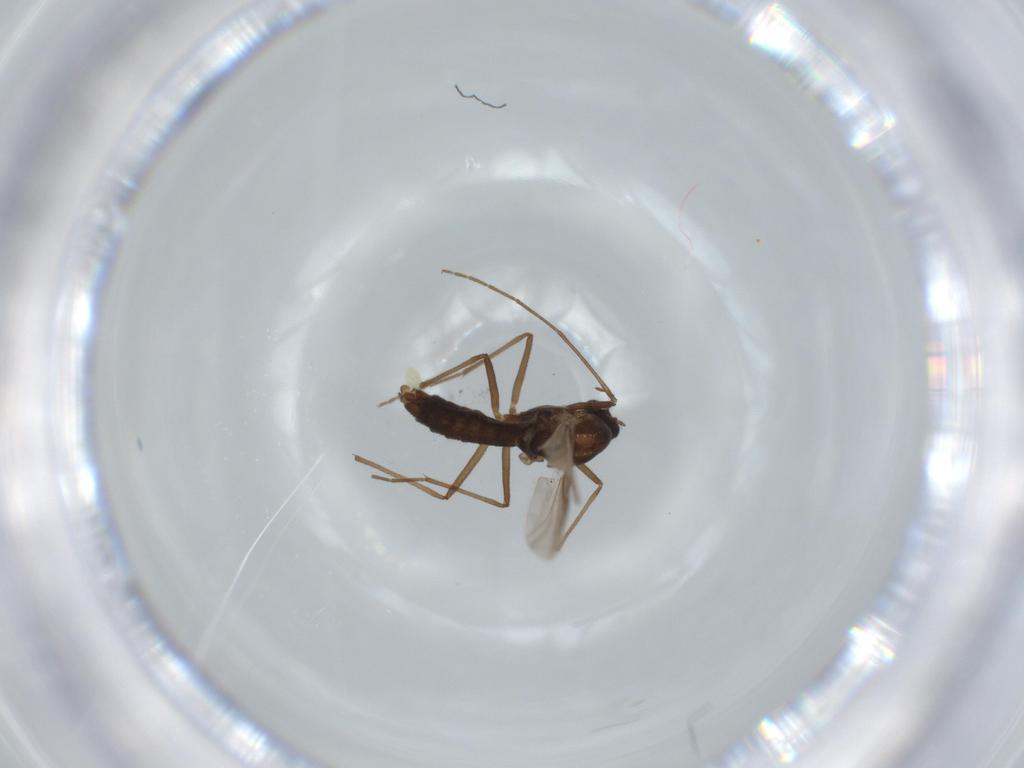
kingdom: Animalia
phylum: Arthropoda
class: Insecta
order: Diptera
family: Chironomidae
